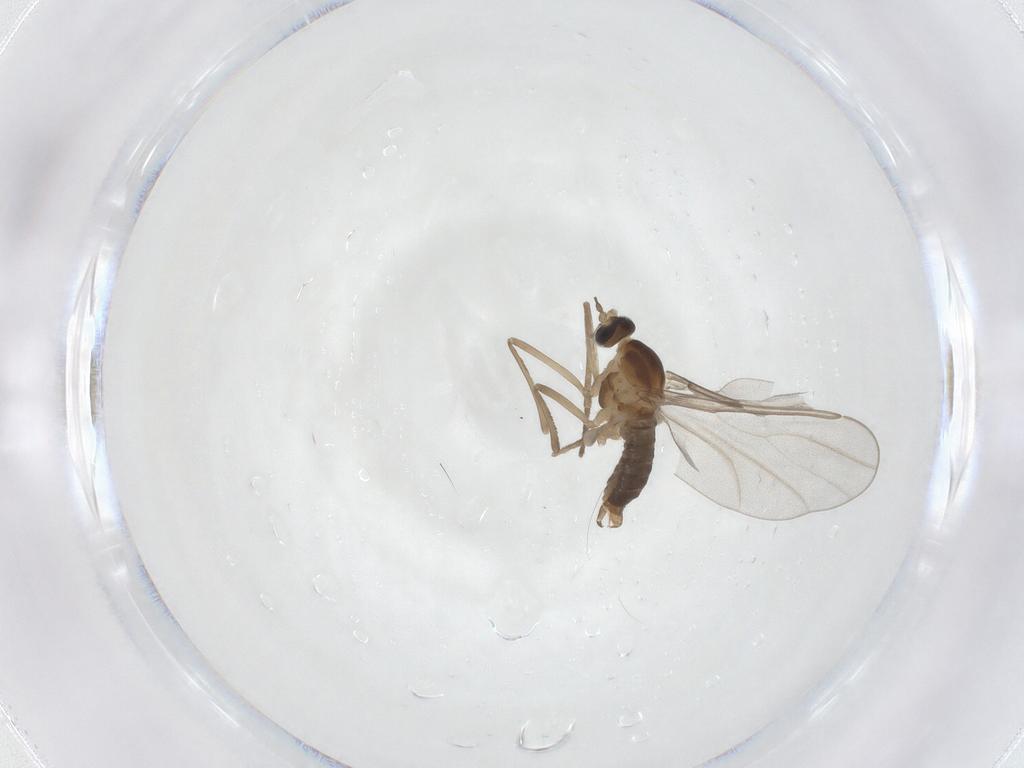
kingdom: Animalia
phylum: Arthropoda
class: Insecta
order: Diptera
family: Cecidomyiidae
